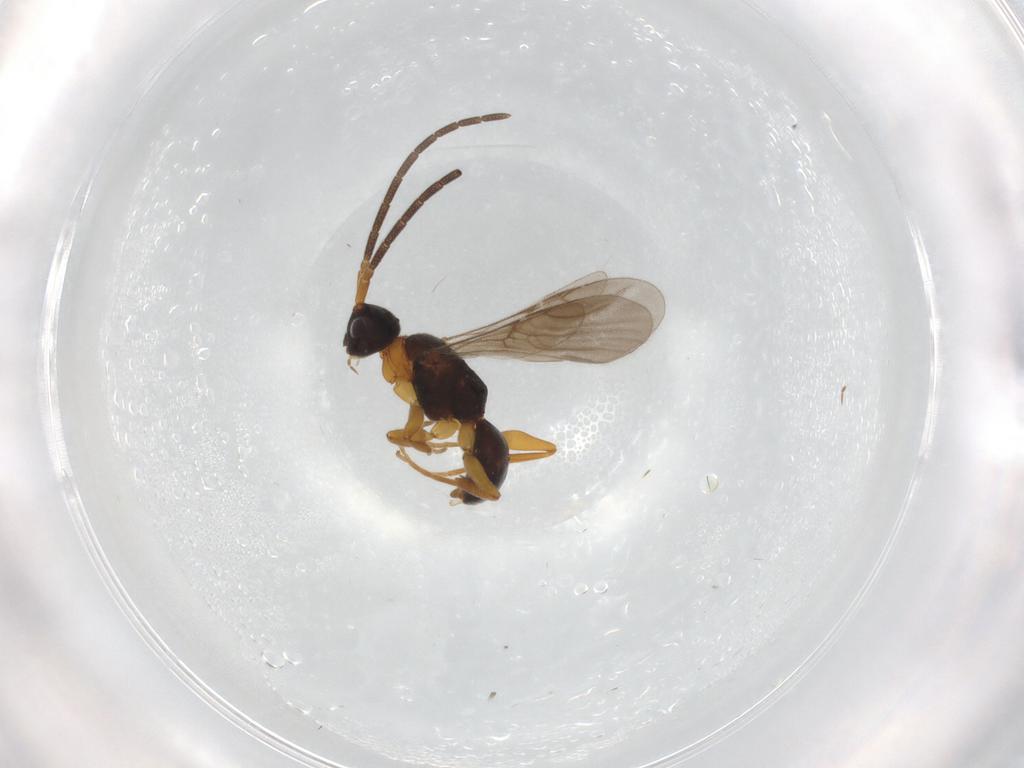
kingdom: Animalia
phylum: Arthropoda
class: Insecta
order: Hymenoptera
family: Embolemidae
